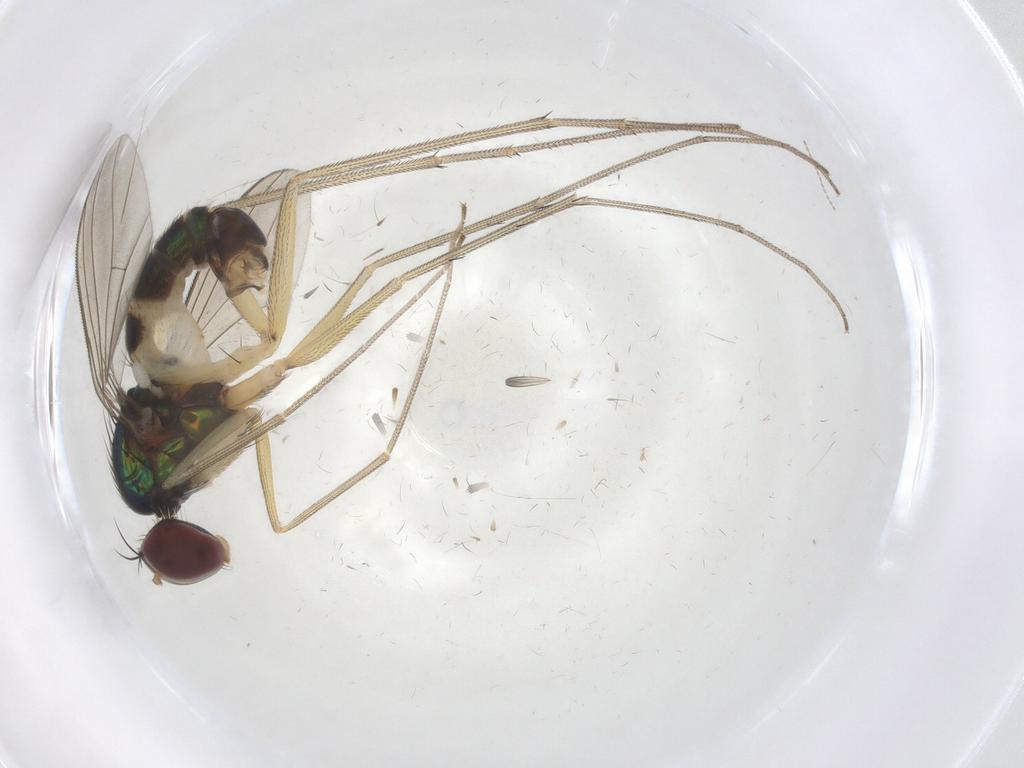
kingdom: Animalia
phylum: Arthropoda
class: Insecta
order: Diptera
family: Dolichopodidae
